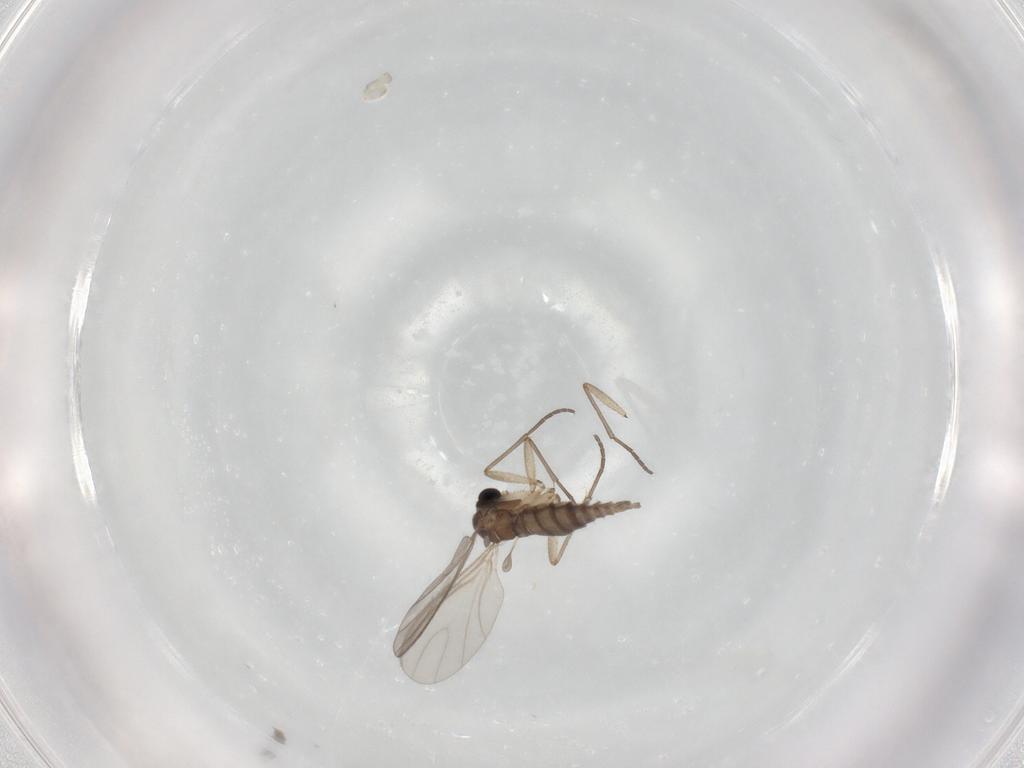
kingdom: Animalia
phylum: Arthropoda
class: Insecta
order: Diptera
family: Sciaridae
